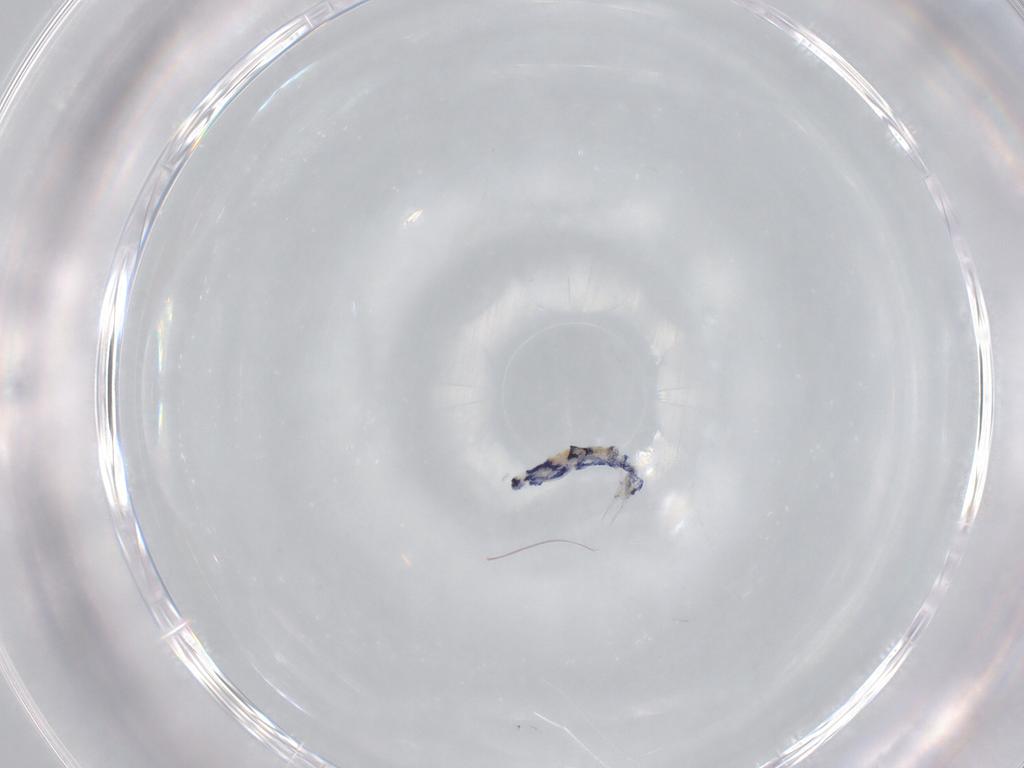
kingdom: Animalia
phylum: Arthropoda
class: Collembola
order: Entomobryomorpha
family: Entomobryidae
